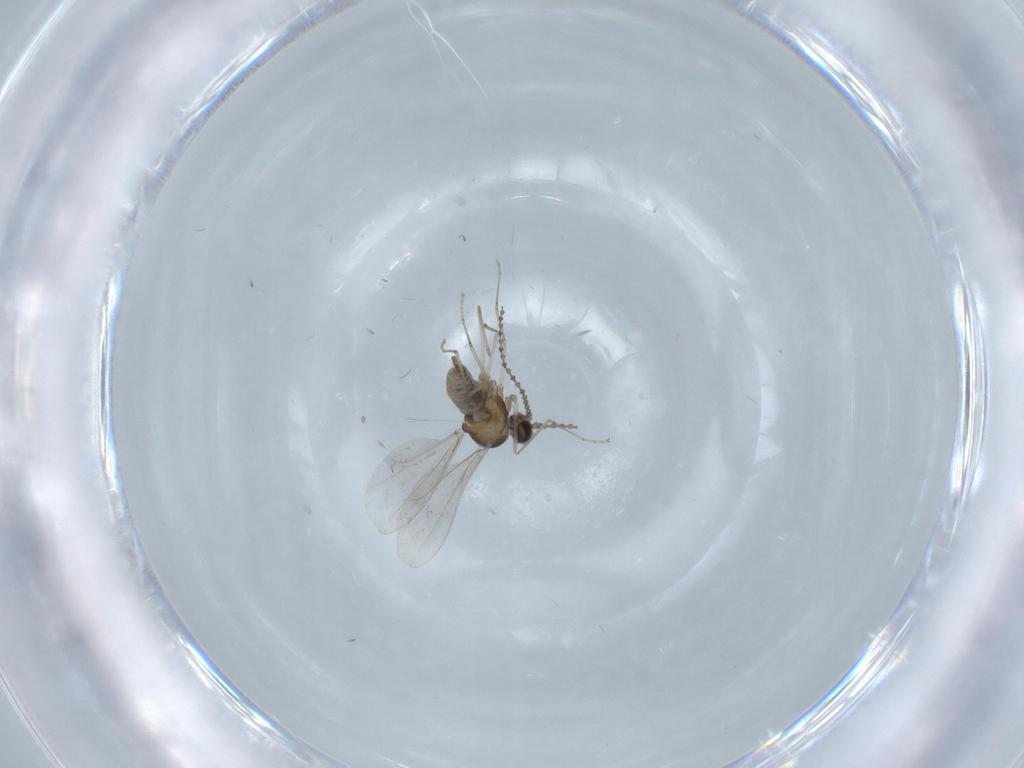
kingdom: Animalia
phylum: Arthropoda
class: Insecta
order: Diptera
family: Cecidomyiidae
